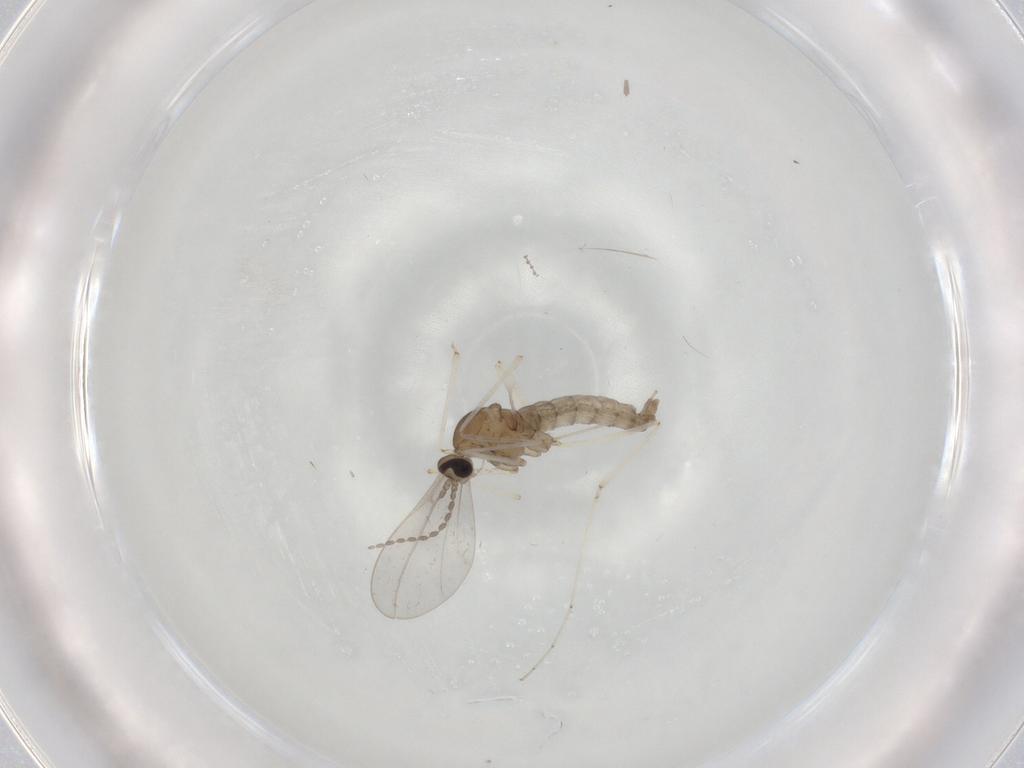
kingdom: Animalia
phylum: Arthropoda
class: Insecta
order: Diptera
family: Cecidomyiidae
